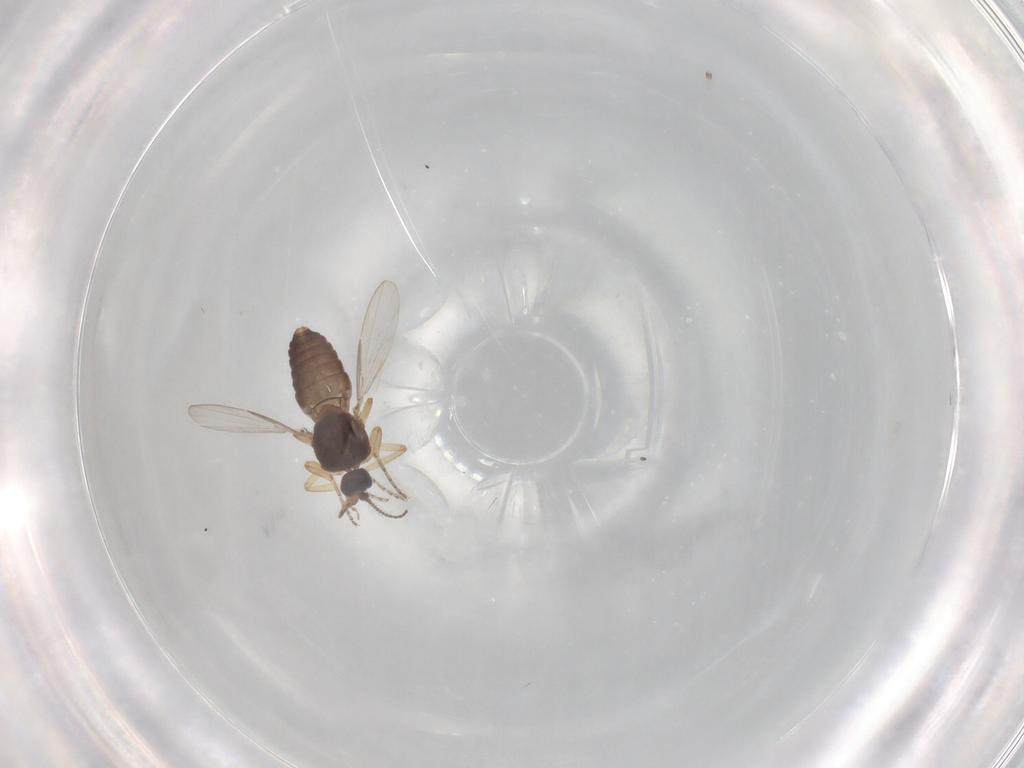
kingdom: Animalia
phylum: Arthropoda
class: Insecta
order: Diptera
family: Ceratopogonidae
